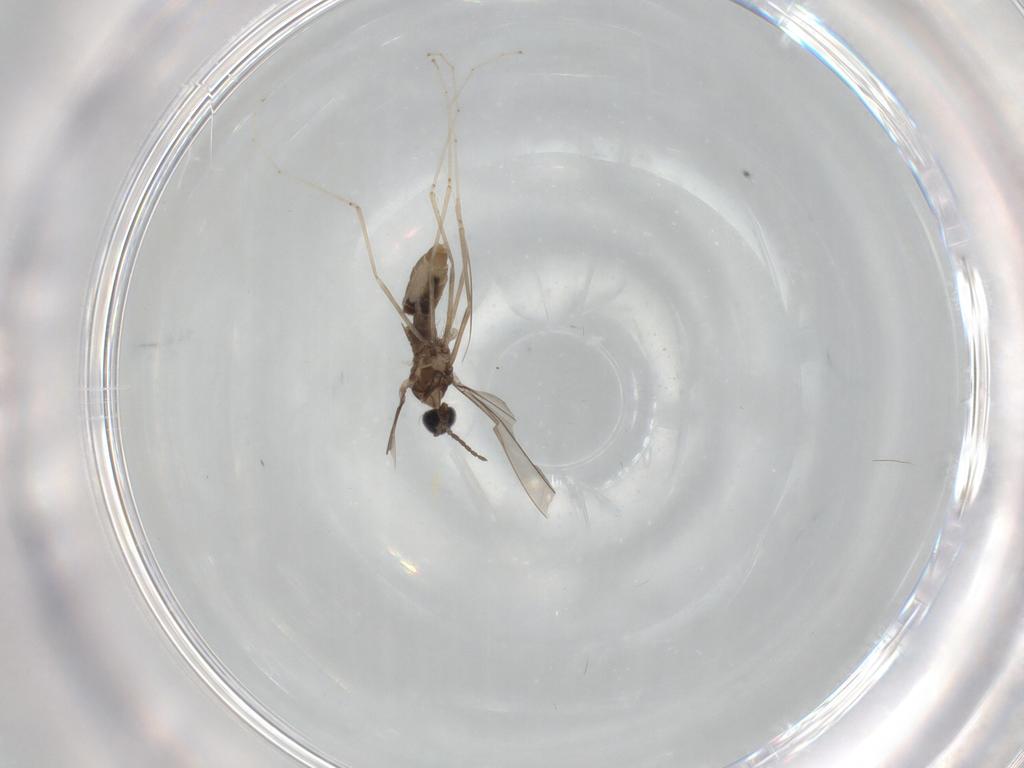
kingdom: Animalia
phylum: Arthropoda
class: Insecta
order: Diptera
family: Cecidomyiidae
